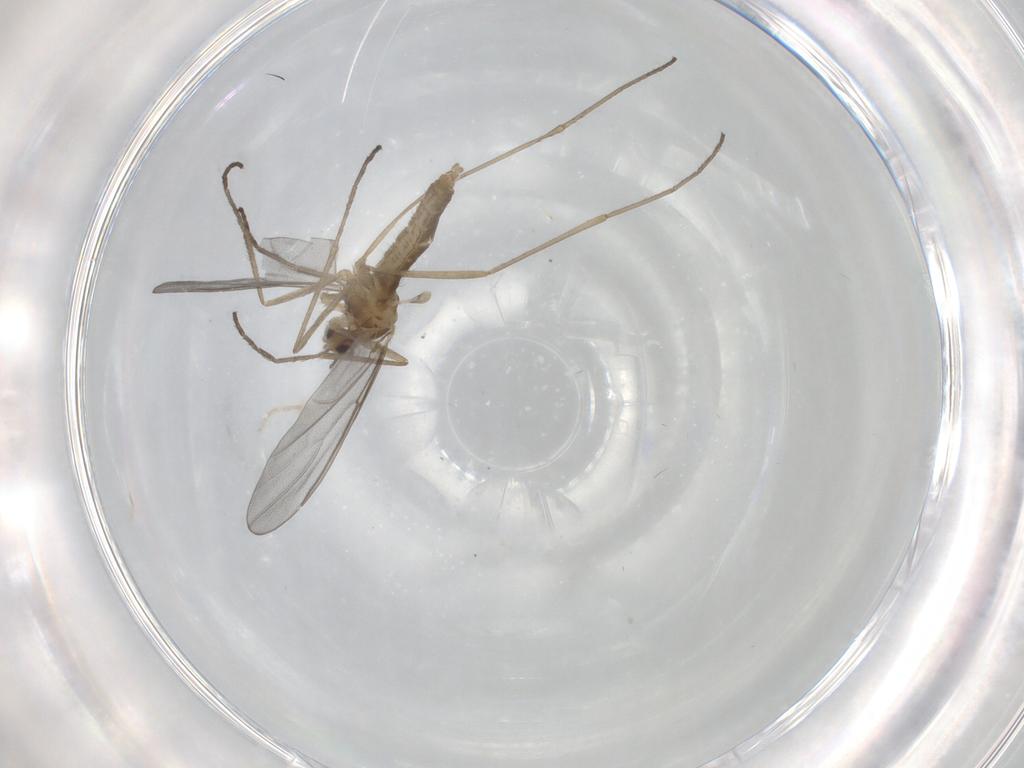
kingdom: Animalia
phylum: Arthropoda
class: Insecta
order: Diptera
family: Cecidomyiidae
